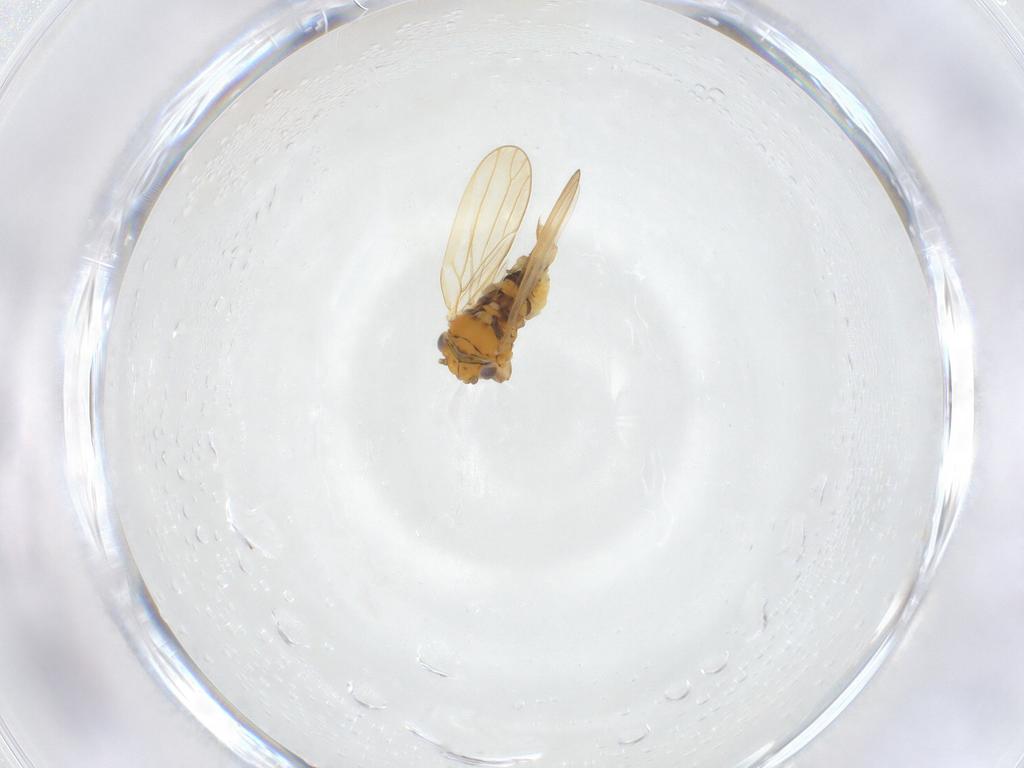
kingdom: Animalia
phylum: Arthropoda
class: Insecta
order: Hemiptera
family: Aphalaridae
